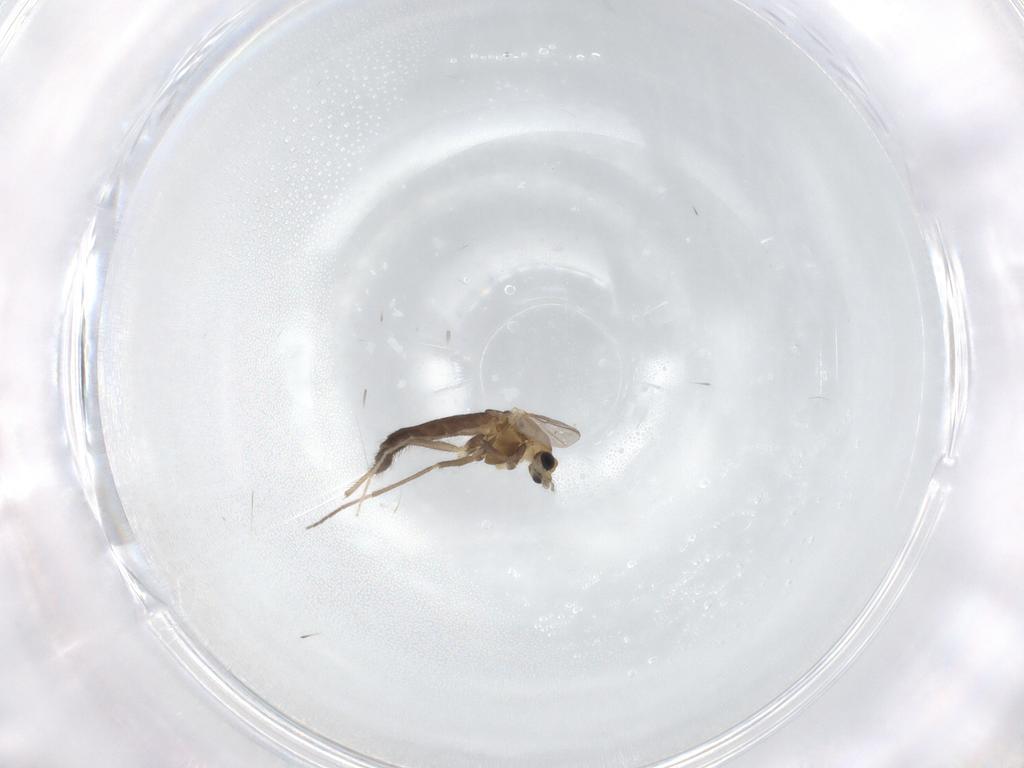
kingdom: Animalia
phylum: Arthropoda
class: Insecta
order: Diptera
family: Chironomidae
